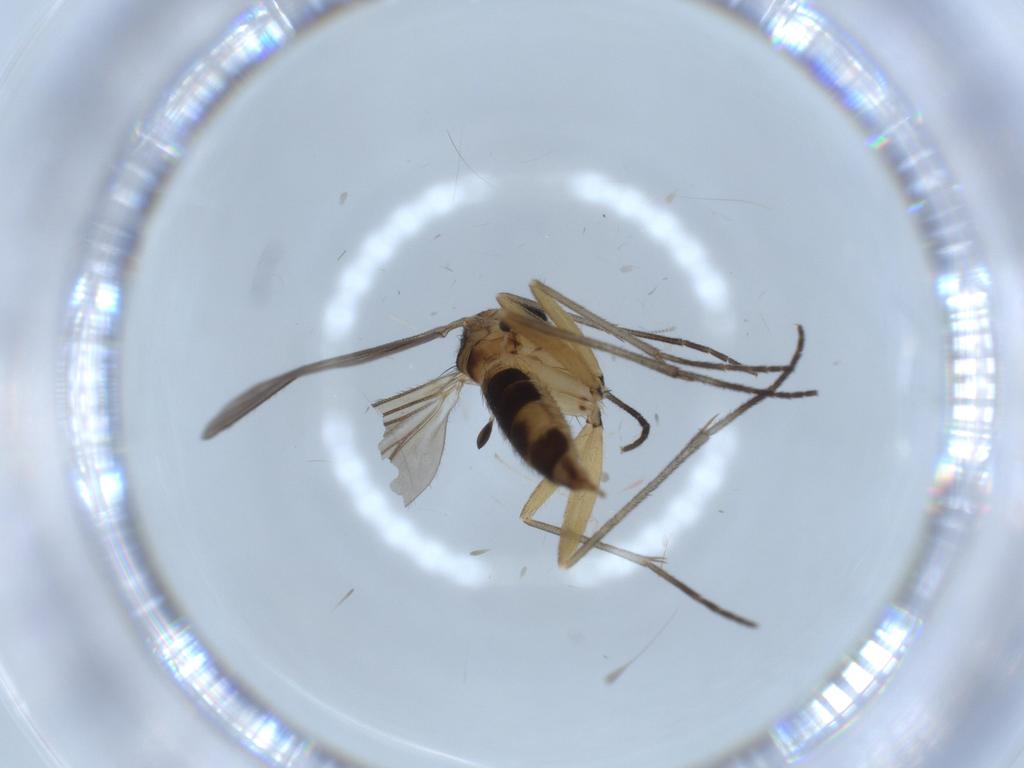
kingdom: Animalia
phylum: Arthropoda
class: Insecta
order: Diptera
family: Sciaridae
